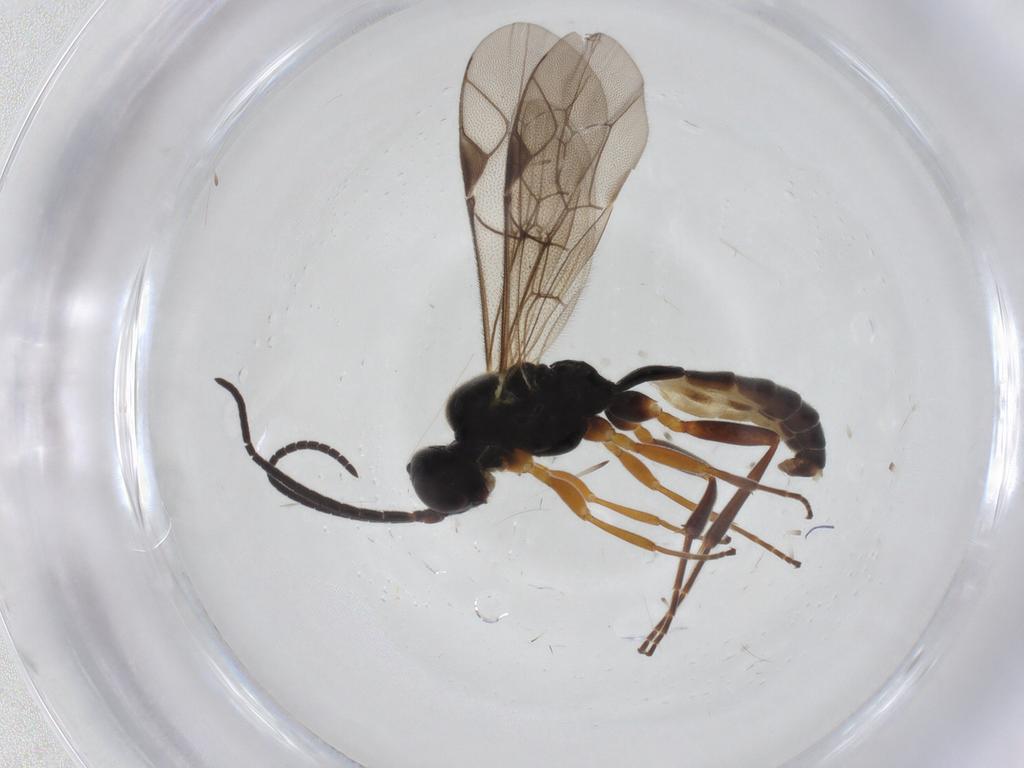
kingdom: Animalia
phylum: Arthropoda
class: Insecta
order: Hymenoptera
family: Ichneumonidae
